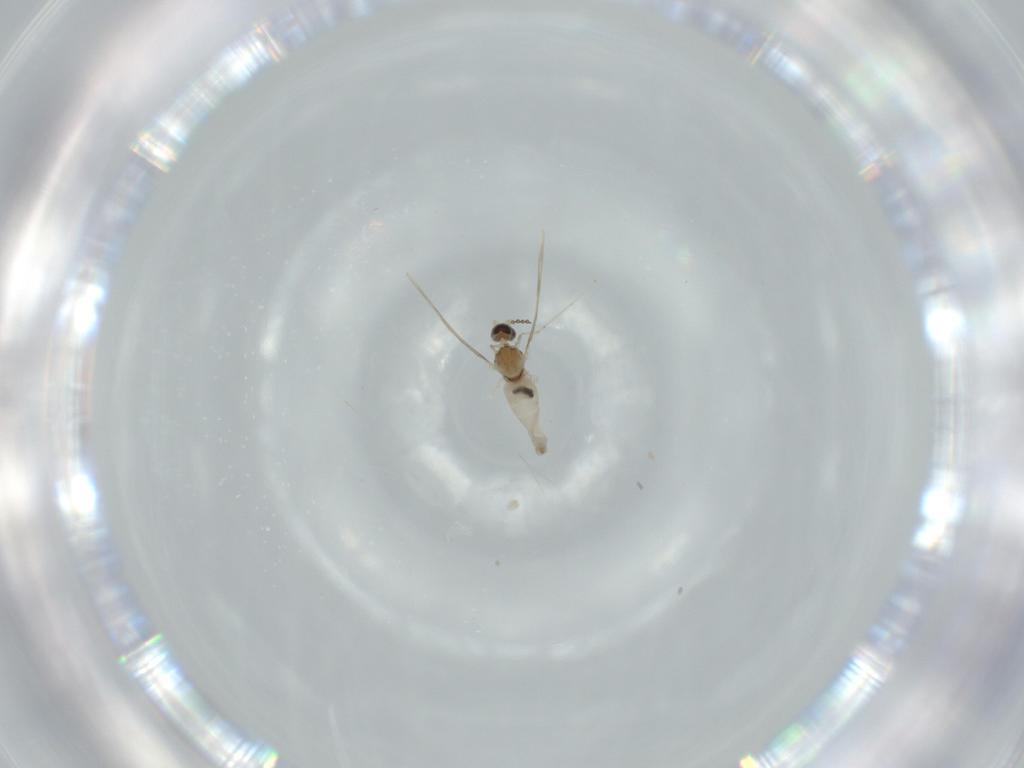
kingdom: Animalia
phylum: Arthropoda
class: Insecta
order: Diptera
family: Cecidomyiidae
